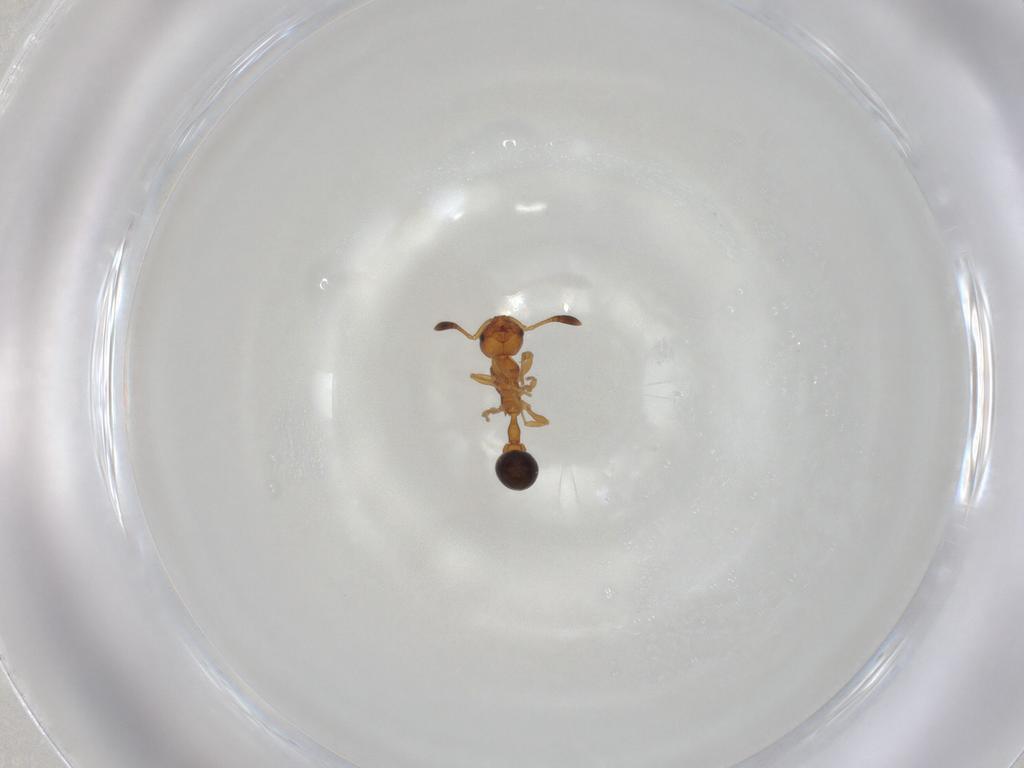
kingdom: Animalia
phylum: Arthropoda
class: Insecta
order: Hymenoptera
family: Formicidae
